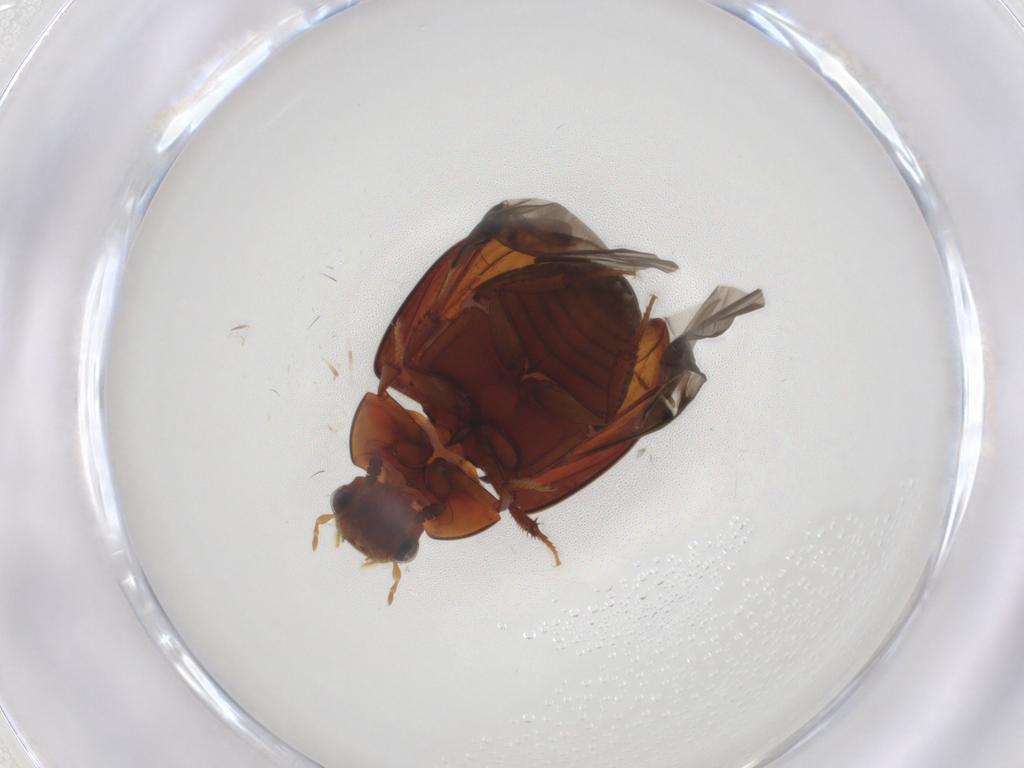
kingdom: Animalia
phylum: Arthropoda
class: Insecta
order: Coleoptera
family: Hydrophilidae
